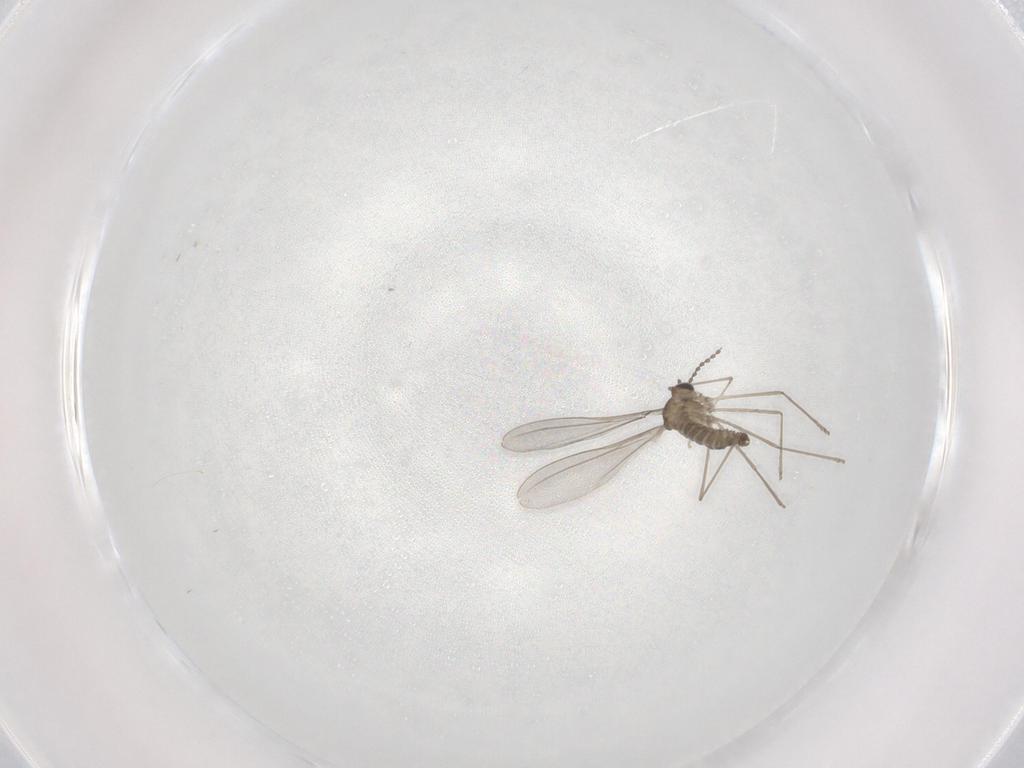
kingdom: Animalia
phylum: Arthropoda
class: Insecta
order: Diptera
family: Cecidomyiidae
